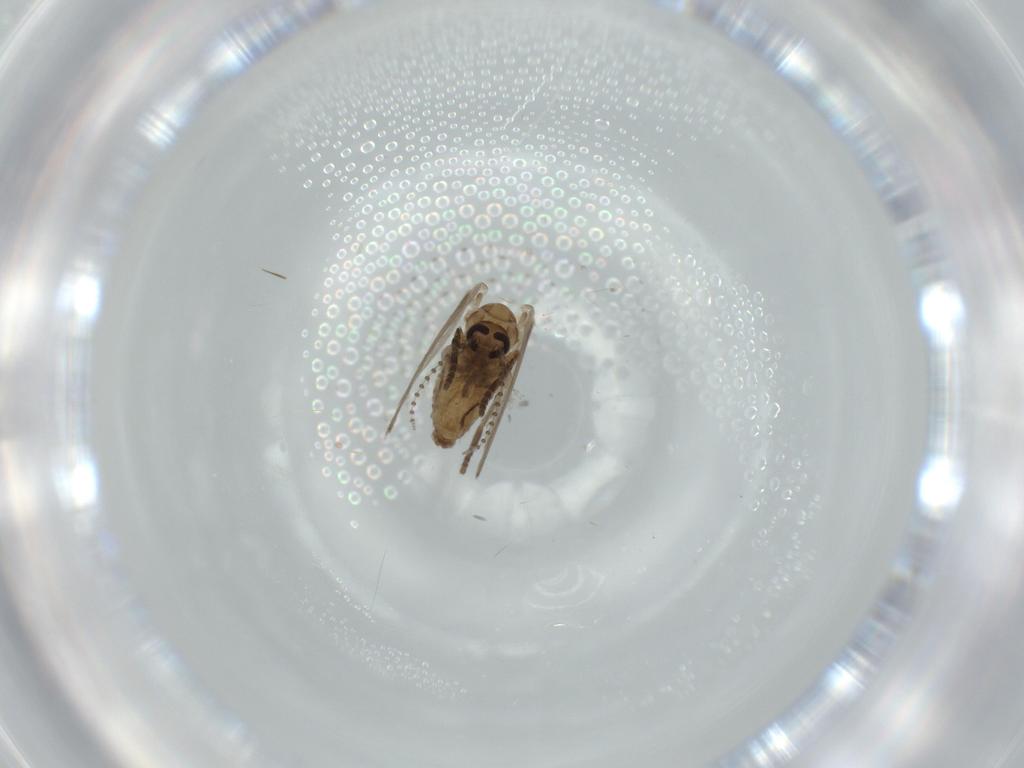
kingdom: Animalia
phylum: Arthropoda
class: Insecta
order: Diptera
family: Psychodidae
